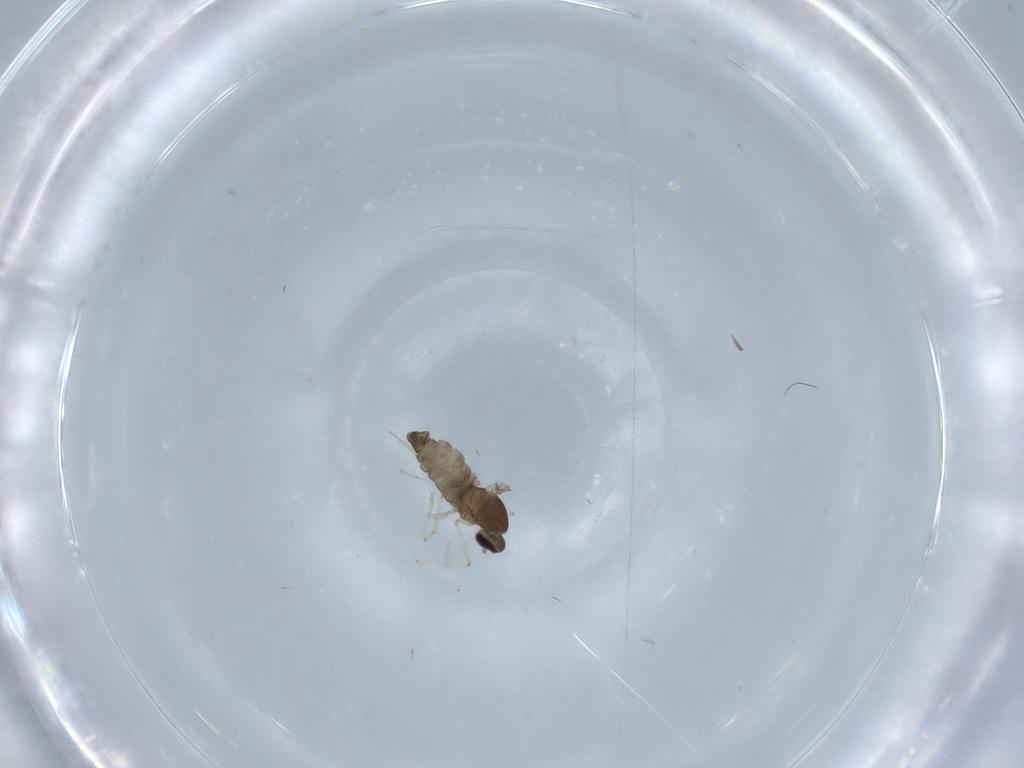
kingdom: Animalia
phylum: Arthropoda
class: Insecta
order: Diptera
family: Cecidomyiidae
